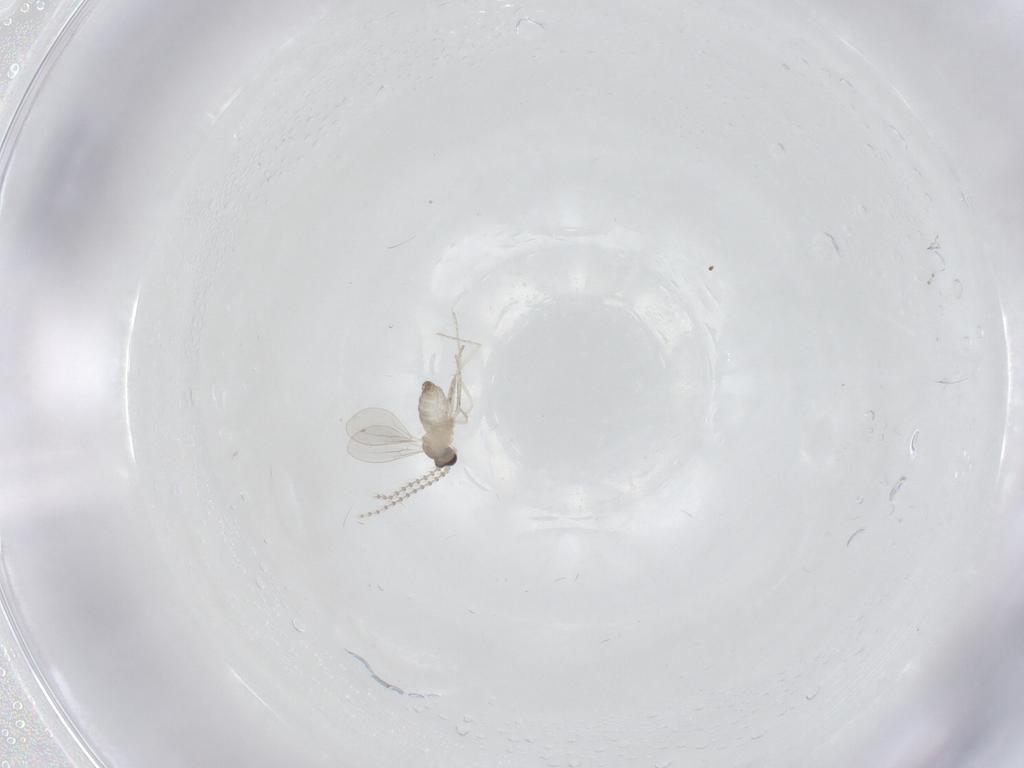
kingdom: Animalia
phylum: Arthropoda
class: Insecta
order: Diptera
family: Cecidomyiidae
